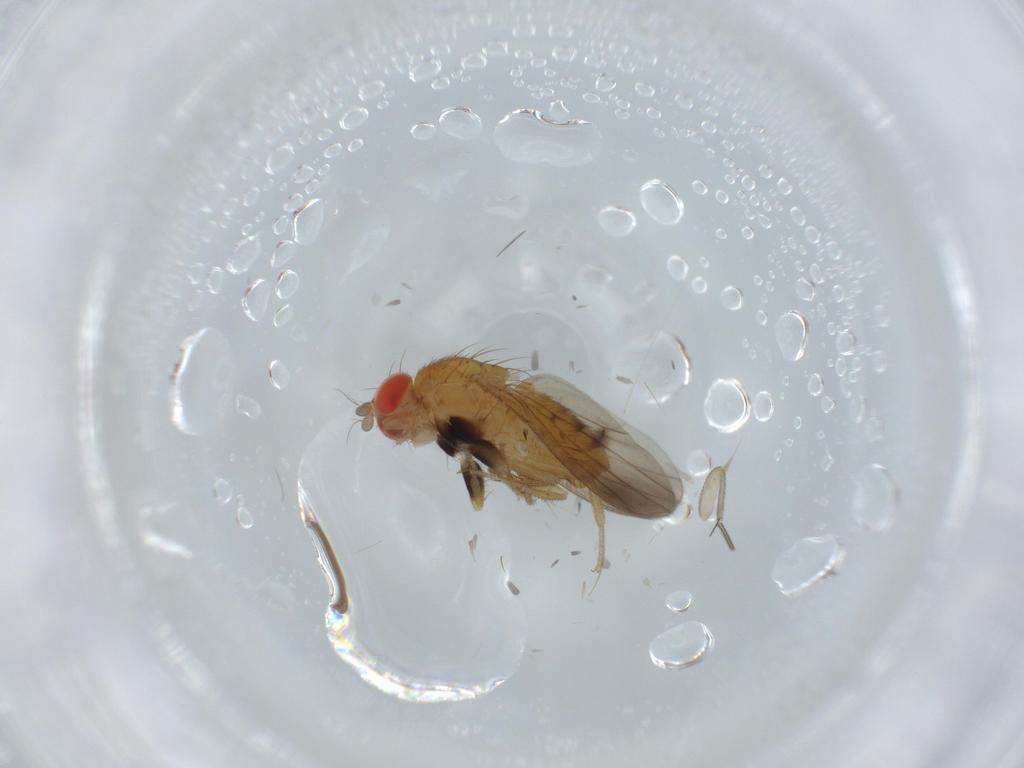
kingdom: Animalia
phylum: Arthropoda
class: Insecta
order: Diptera
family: Drosophilidae
